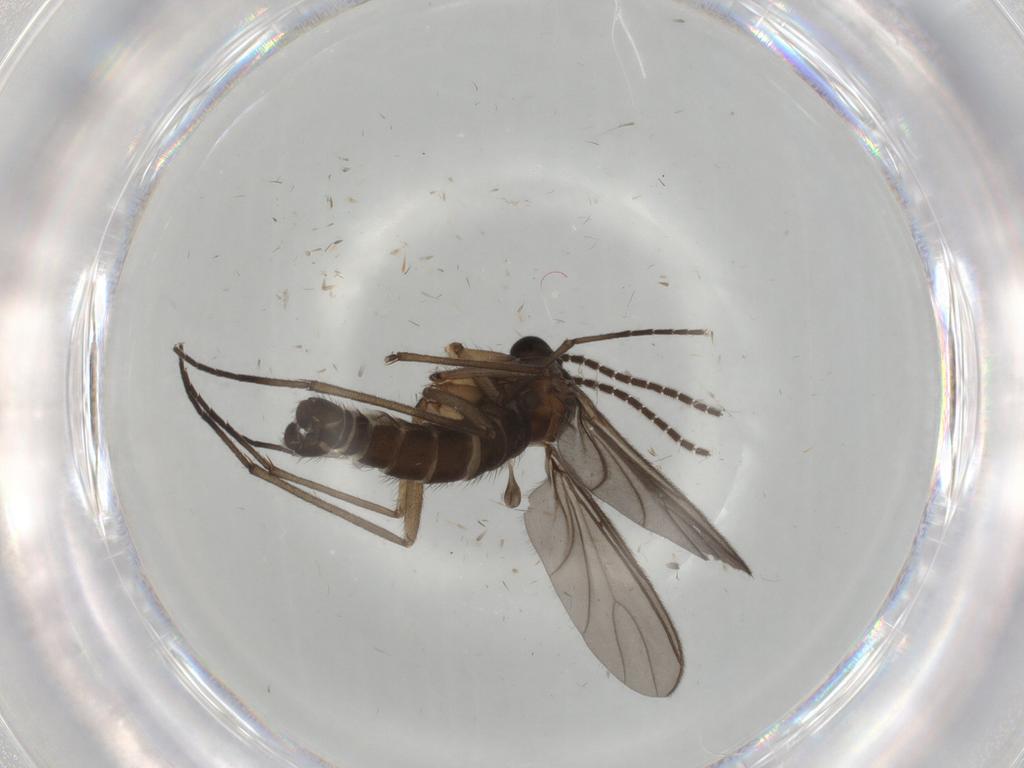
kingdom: Animalia
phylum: Arthropoda
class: Insecta
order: Diptera
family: Sciaridae
